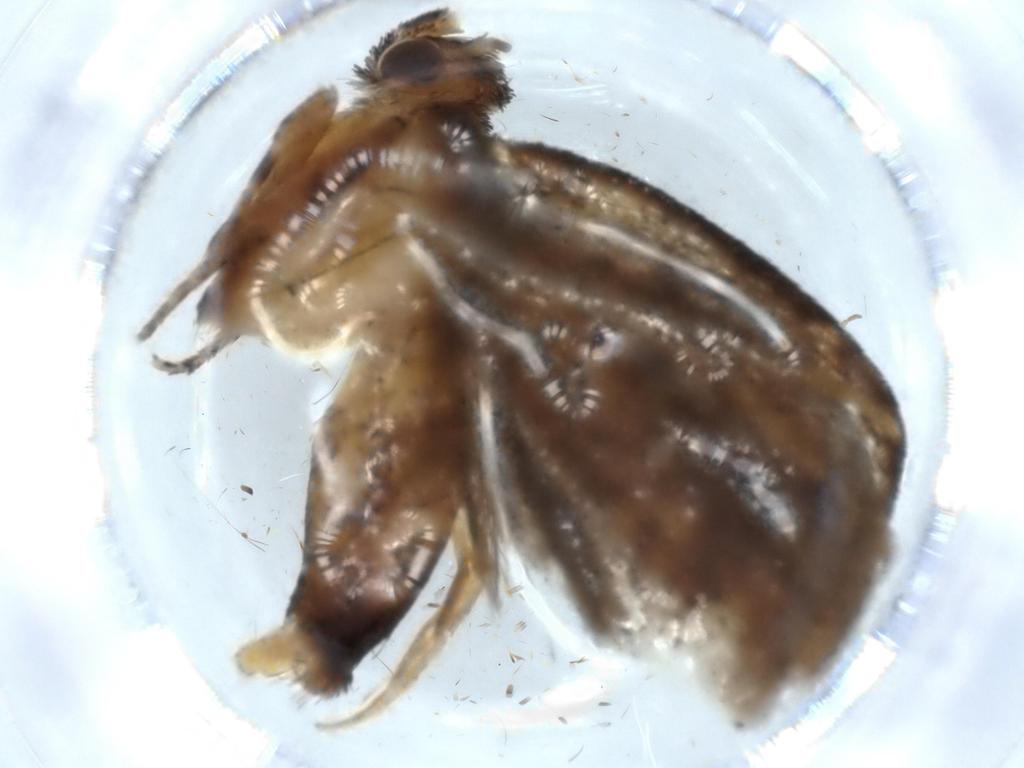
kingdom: Animalia
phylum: Arthropoda
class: Insecta
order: Lepidoptera
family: Tineidae
